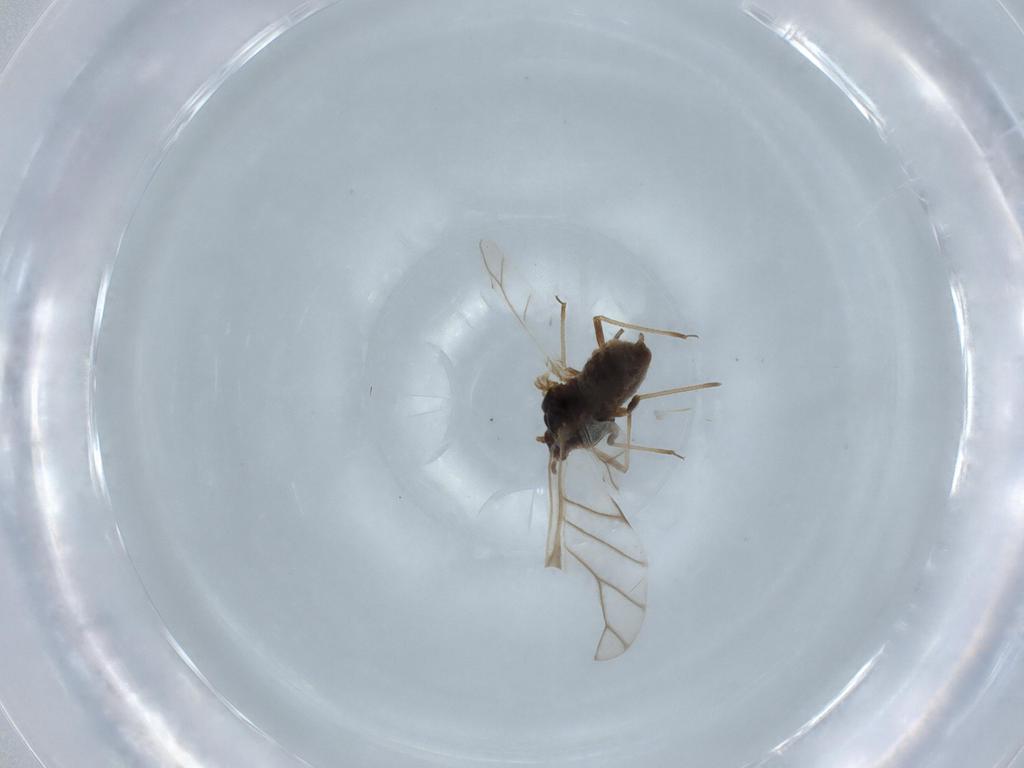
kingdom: Animalia
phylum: Arthropoda
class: Insecta
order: Hemiptera
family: Aphididae
